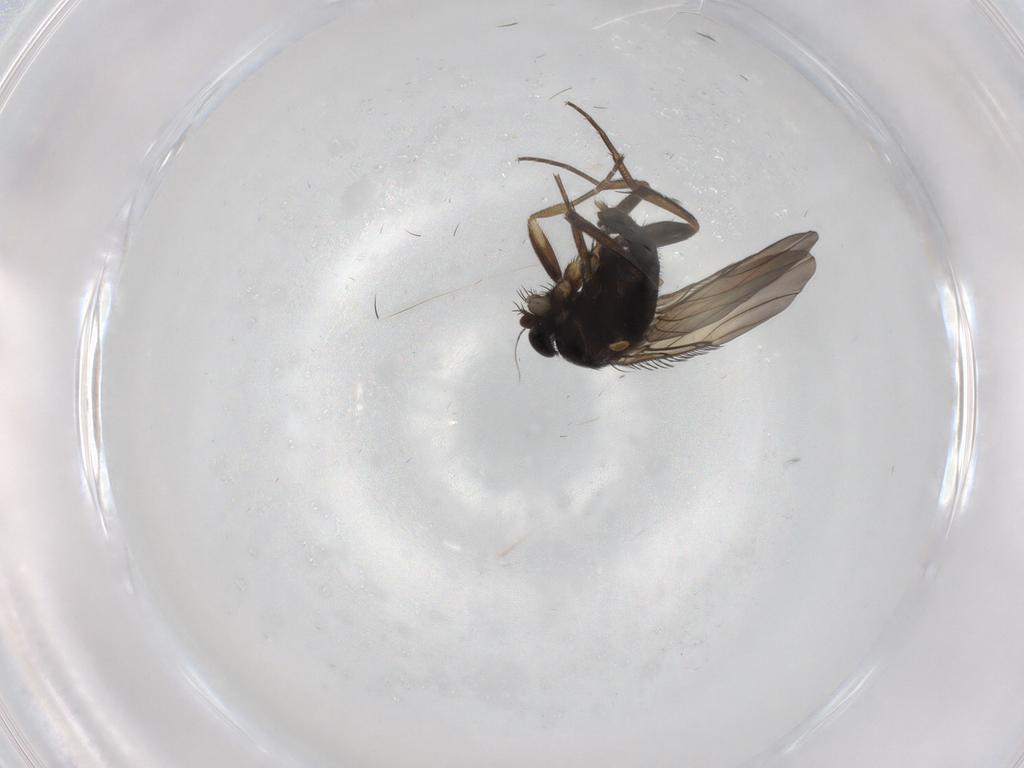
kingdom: Animalia
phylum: Arthropoda
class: Insecta
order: Diptera
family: Phoridae
